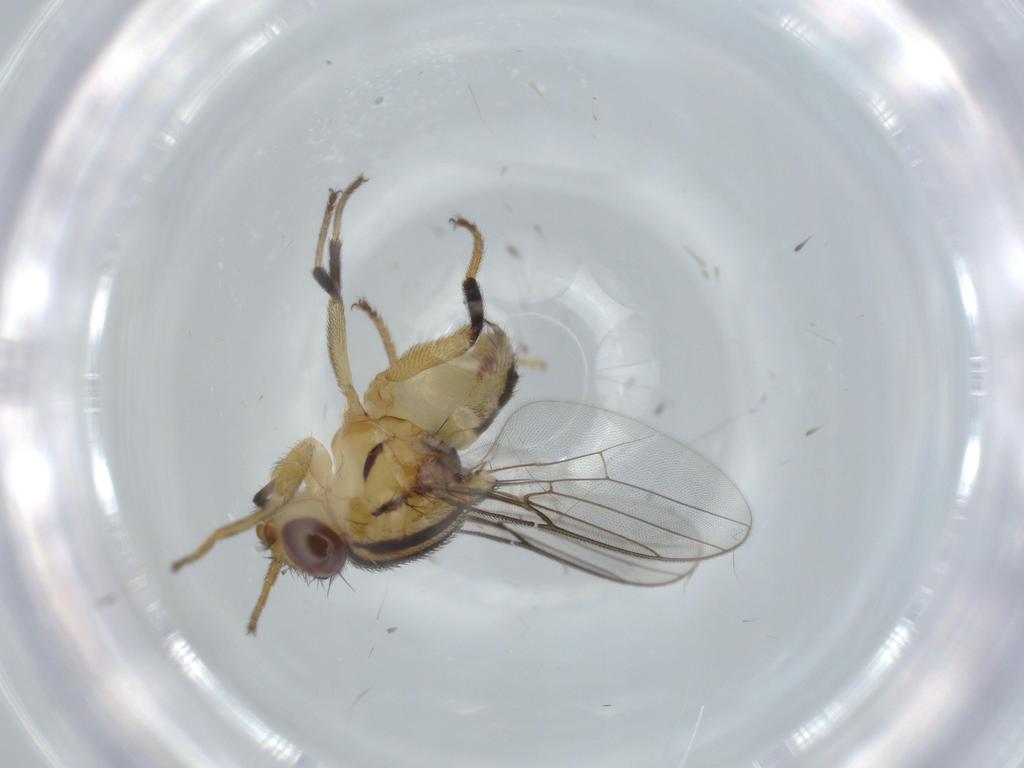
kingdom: Animalia
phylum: Arthropoda
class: Insecta
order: Diptera
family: Chloropidae
